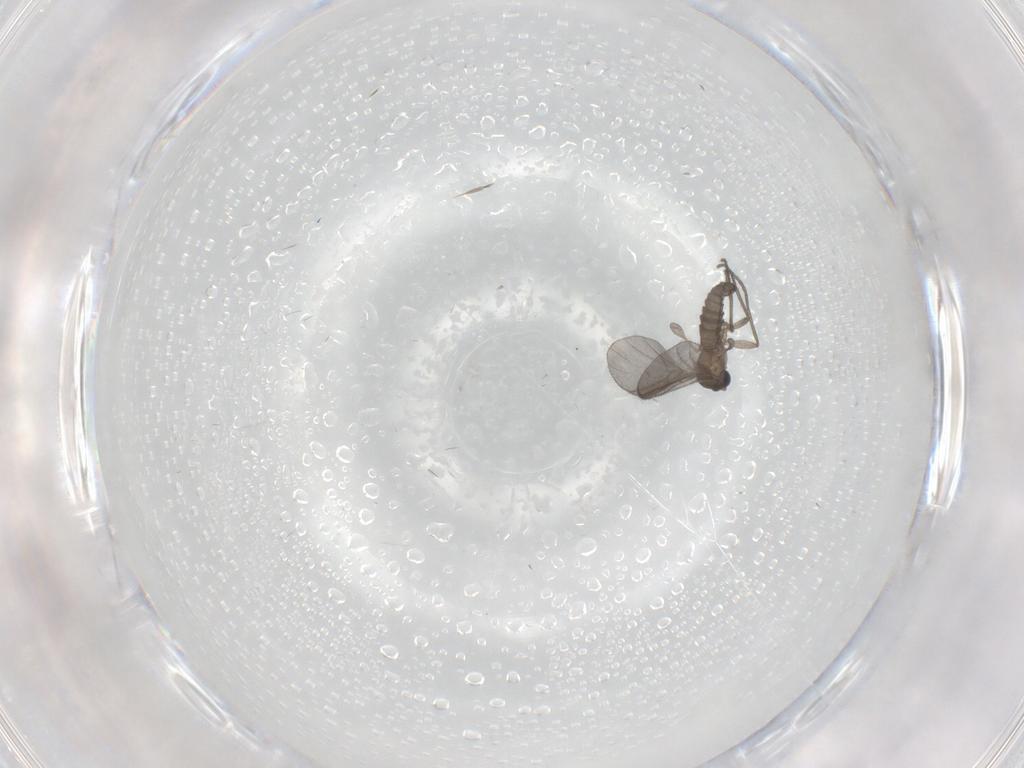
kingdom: Animalia
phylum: Arthropoda
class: Insecta
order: Diptera
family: Sciaridae
